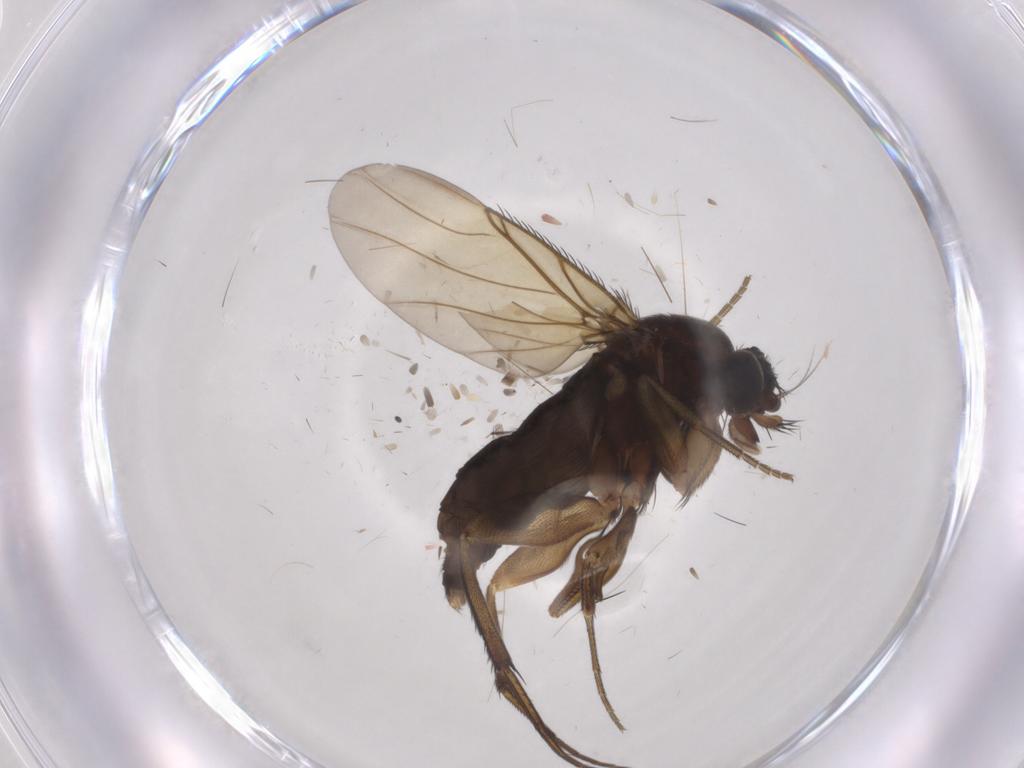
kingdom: Animalia
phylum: Arthropoda
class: Insecta
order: Diptera
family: Phoridae
